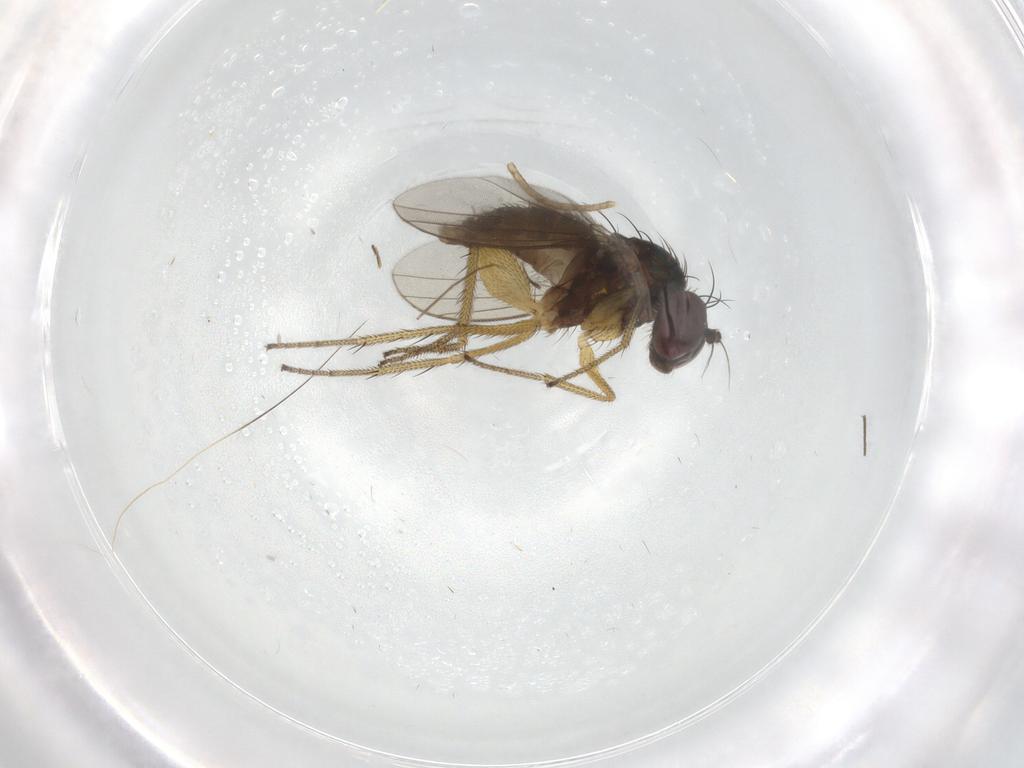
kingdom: Animalia
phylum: Arthropoda
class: Insecta
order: Diptera
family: Dolichopodidae
